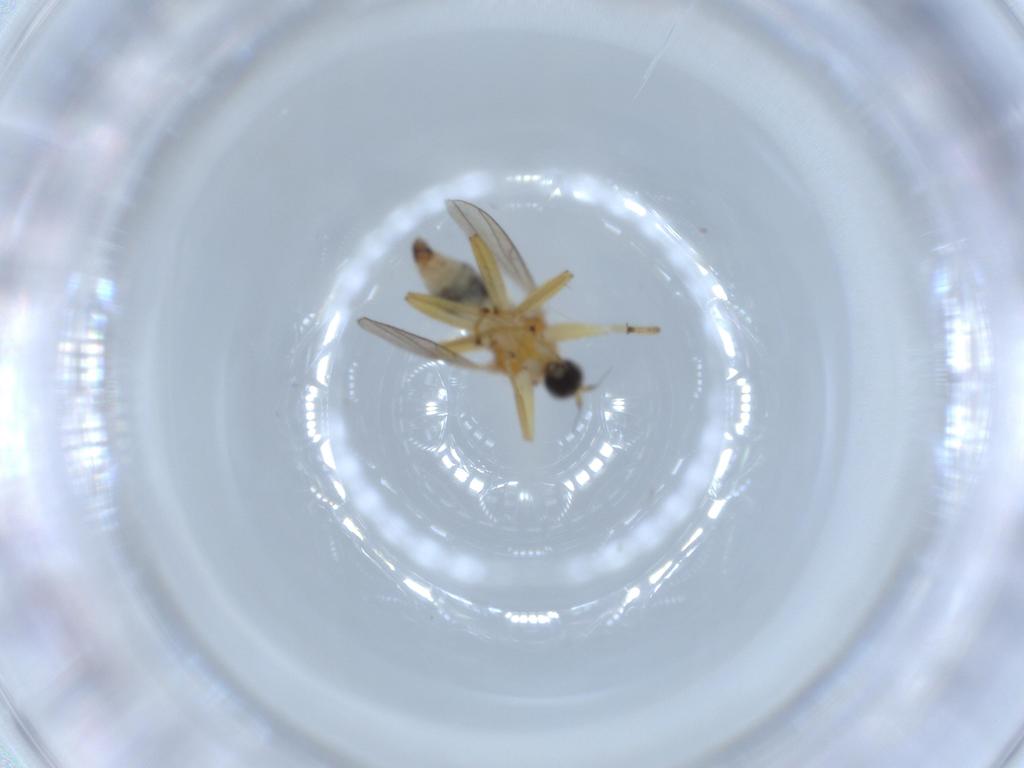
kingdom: Animalia
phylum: Arthropoda
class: Insecta
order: Diptera
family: Hybotidae
